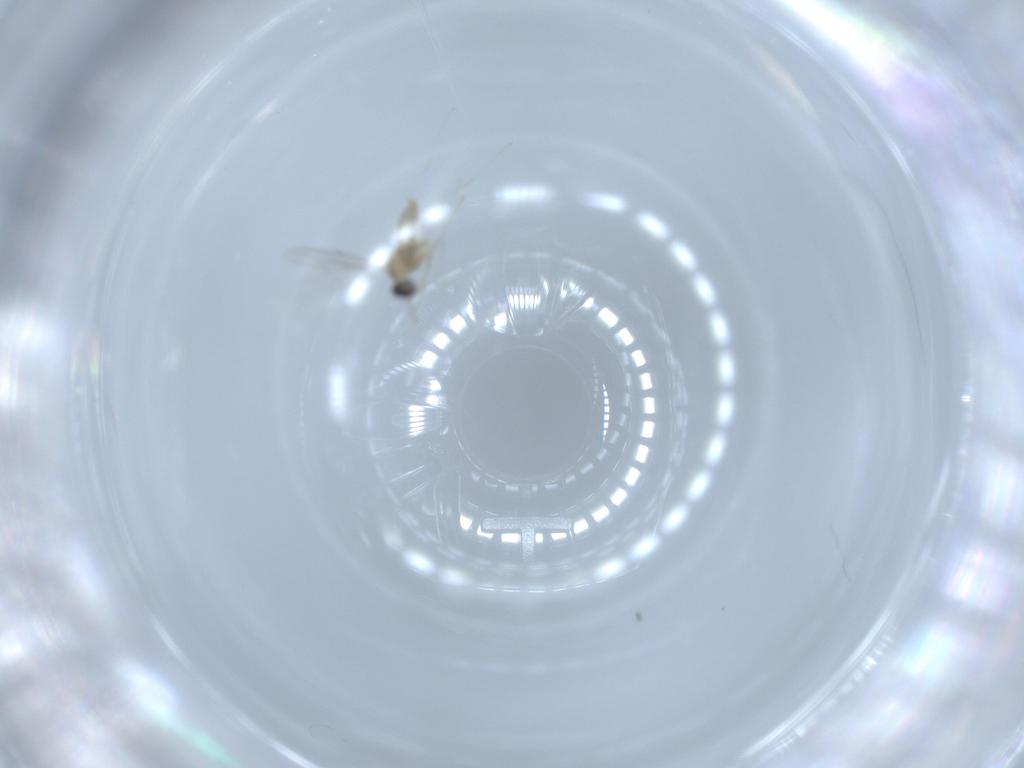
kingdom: Animalia
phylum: Arthropoda
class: Insecta
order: Diptera
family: Cecidomyiidae
